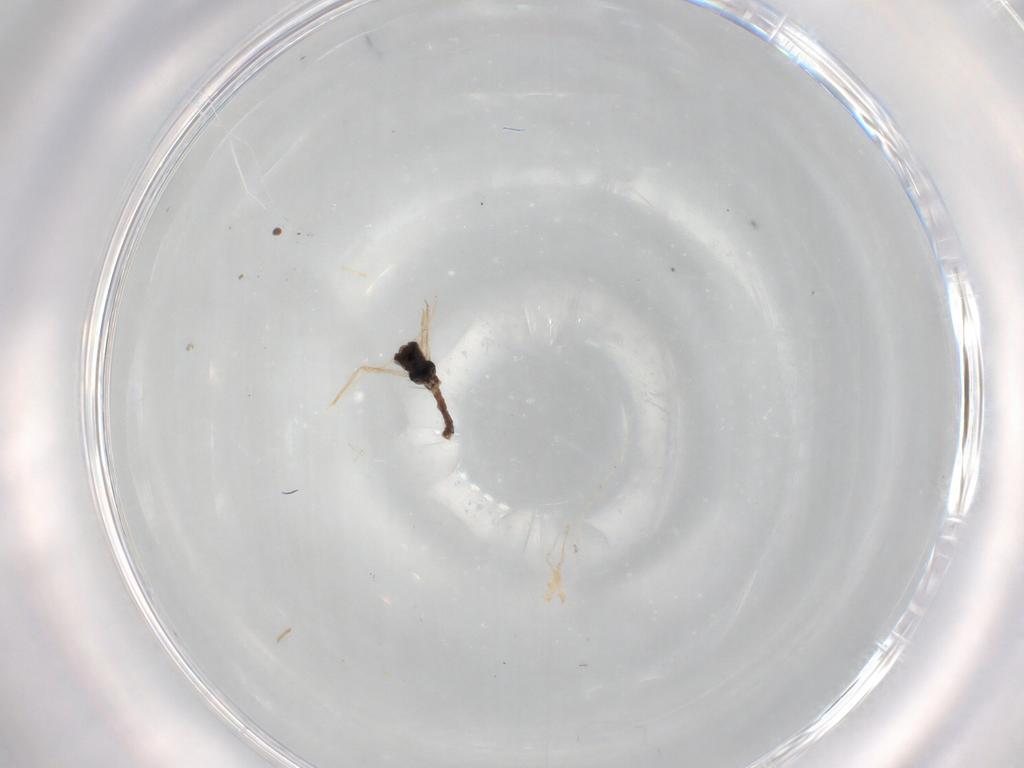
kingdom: Animalia
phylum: Arthropoda
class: Insecta
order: Diptera
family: Chironomidae
